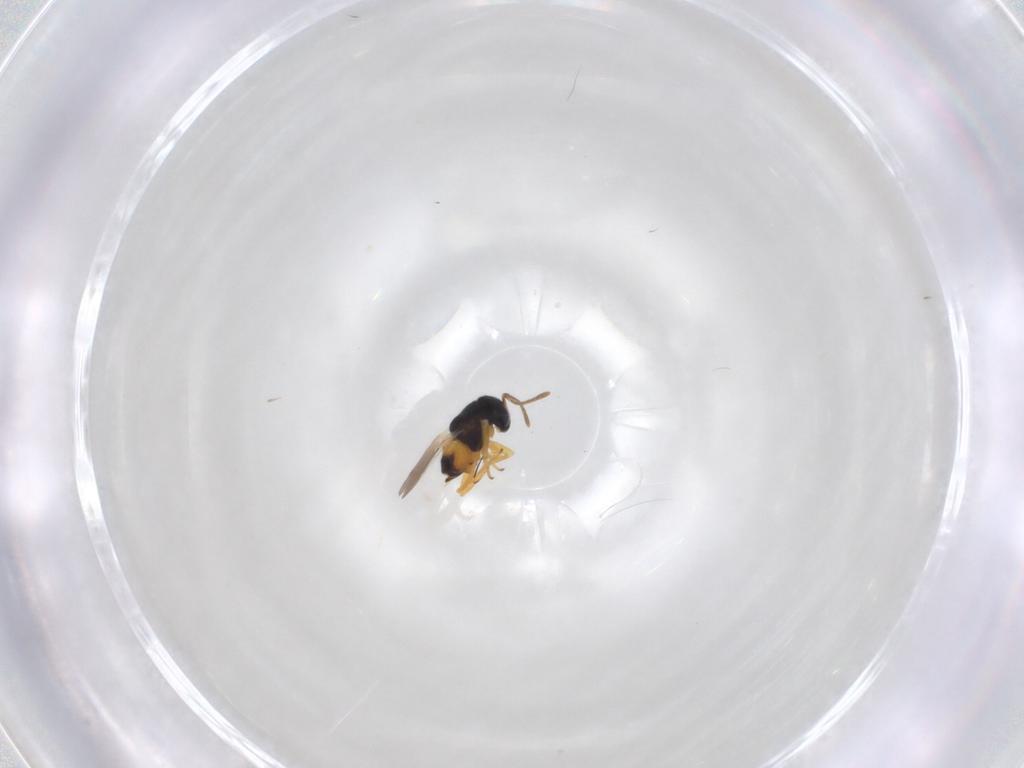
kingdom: Animalia
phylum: Arthropoda
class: Insecta
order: Hymenoptera
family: Encyrtidae
